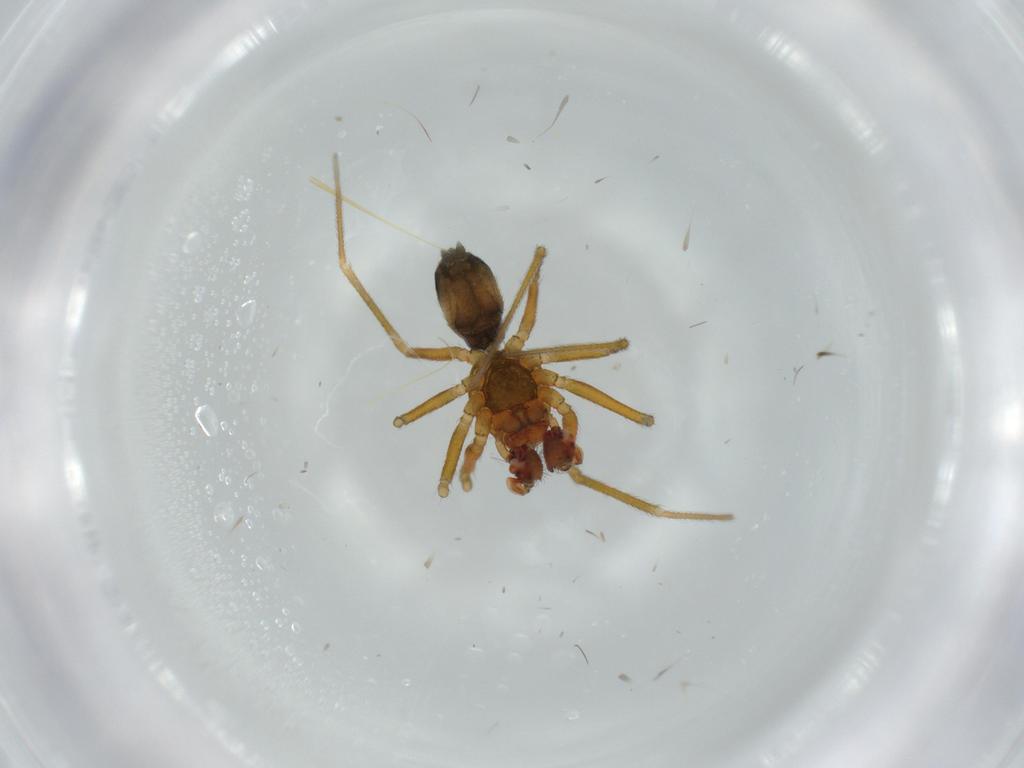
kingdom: Animalia
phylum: Arthropoda
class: Arachnida
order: Araneae
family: Linyphiidae
